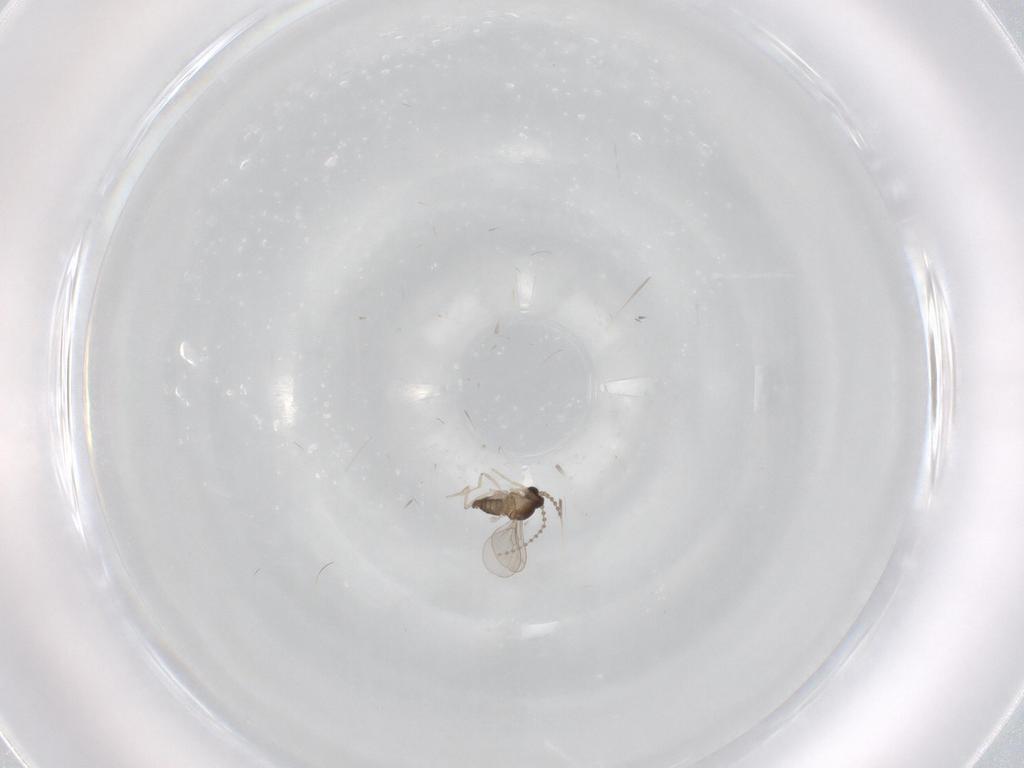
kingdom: Animalia
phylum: Arthropoda
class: Insecta
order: Diptera
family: Cecidomyiidae
